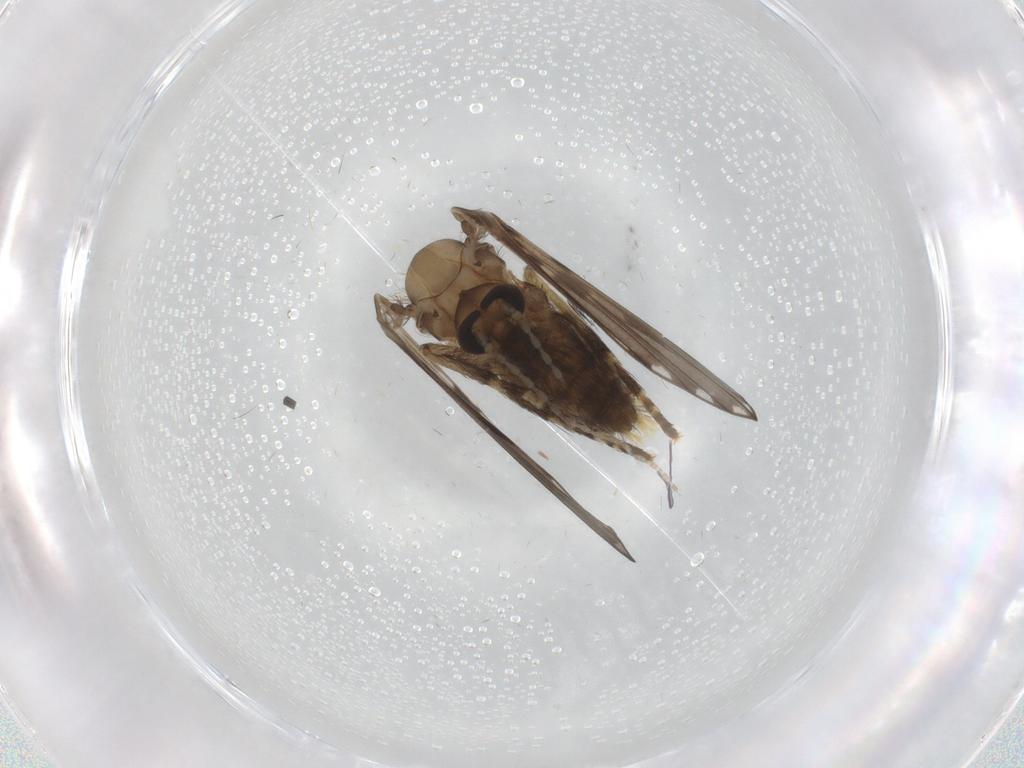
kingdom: Animalia
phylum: Arthropoda
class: Insecta
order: Diptera
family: Psychodidae
